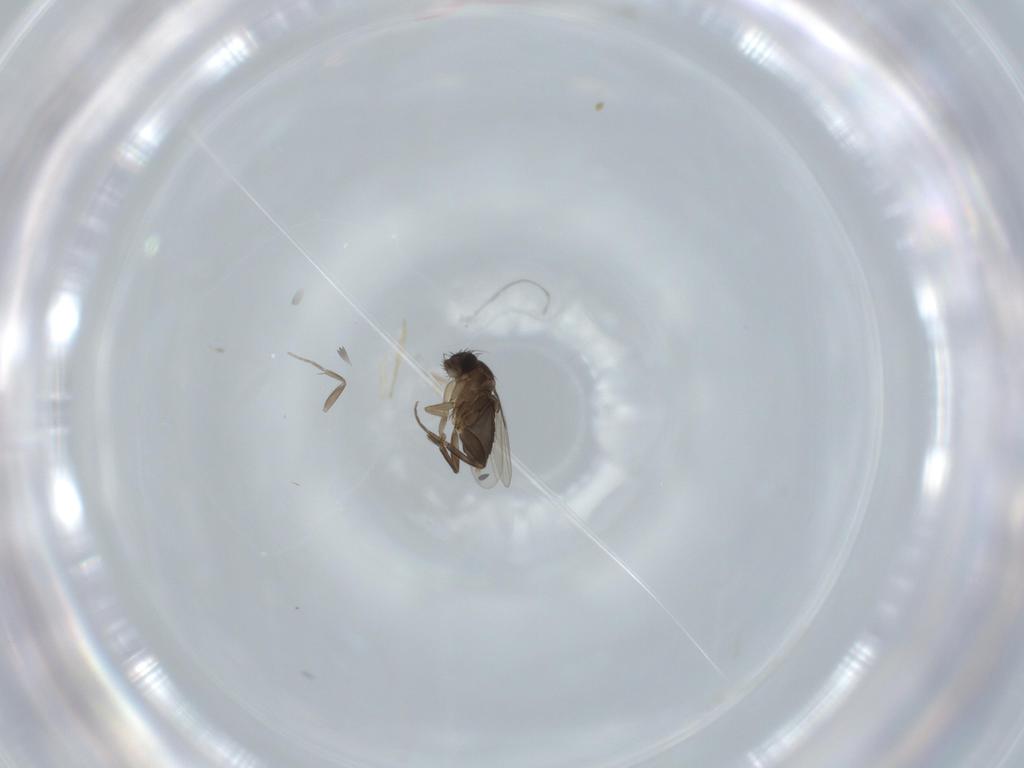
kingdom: Animalia
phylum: Arthropoda
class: Insecta
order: Diptera
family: Phoridae
